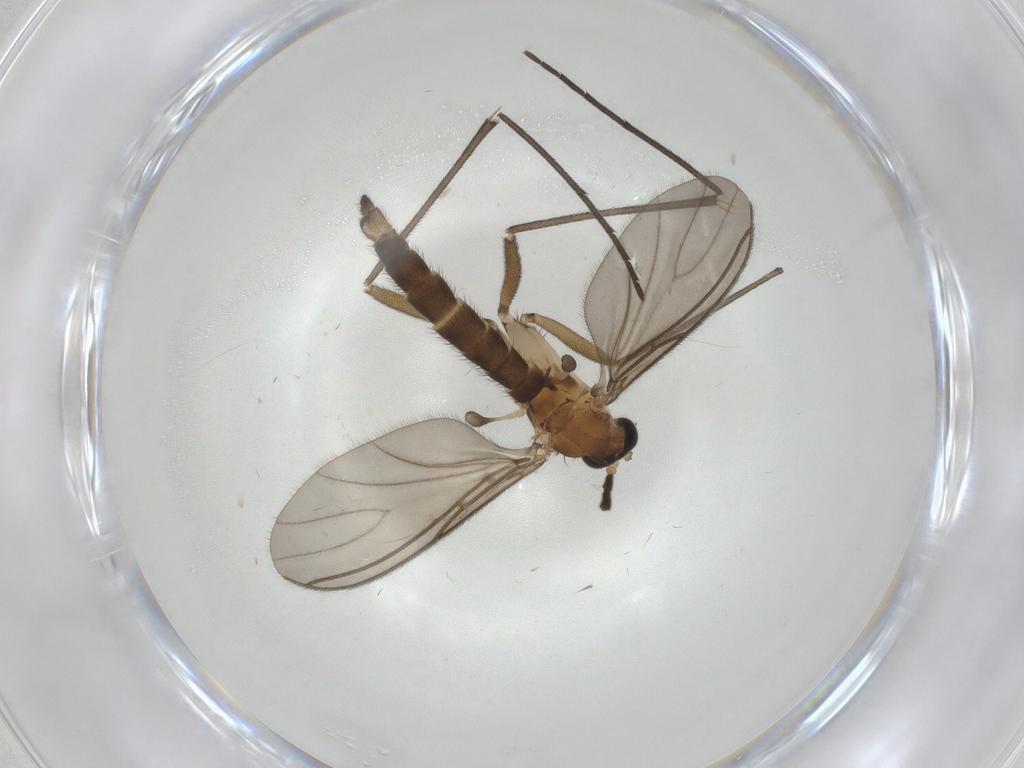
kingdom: Animalia
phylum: Arthropoda
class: Insecta
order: Diptera
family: Sciaridae
